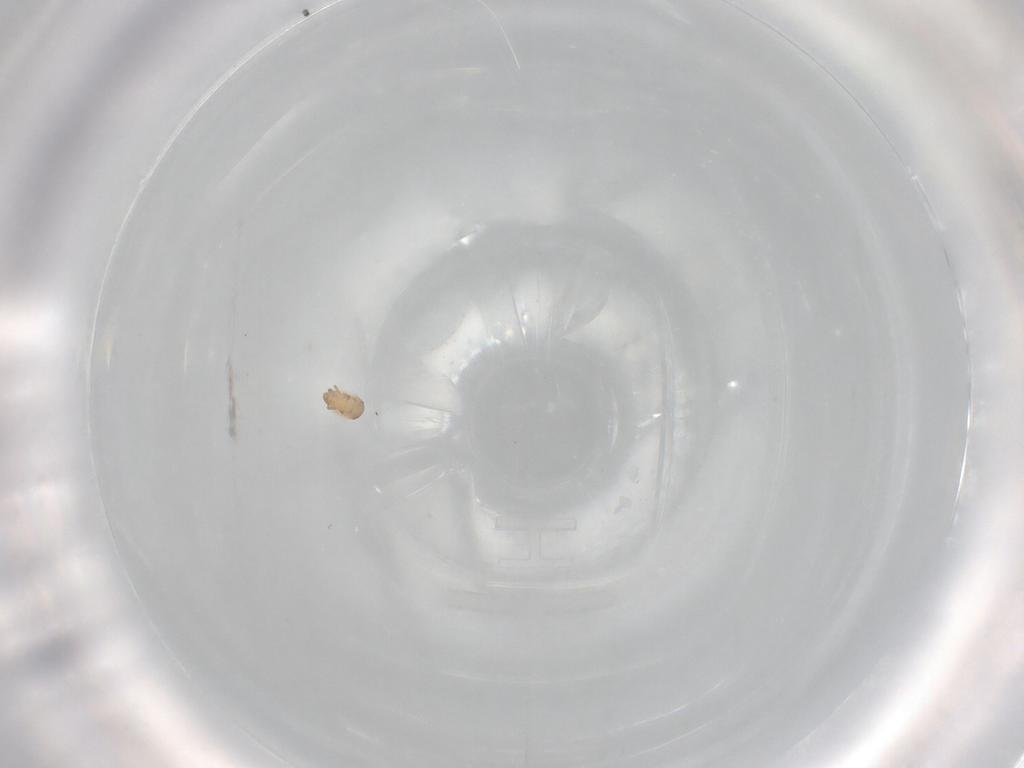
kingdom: Animalia
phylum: Arthropoda
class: Arachnida
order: Sarcoptiformes
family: Trhypochthoniidae
